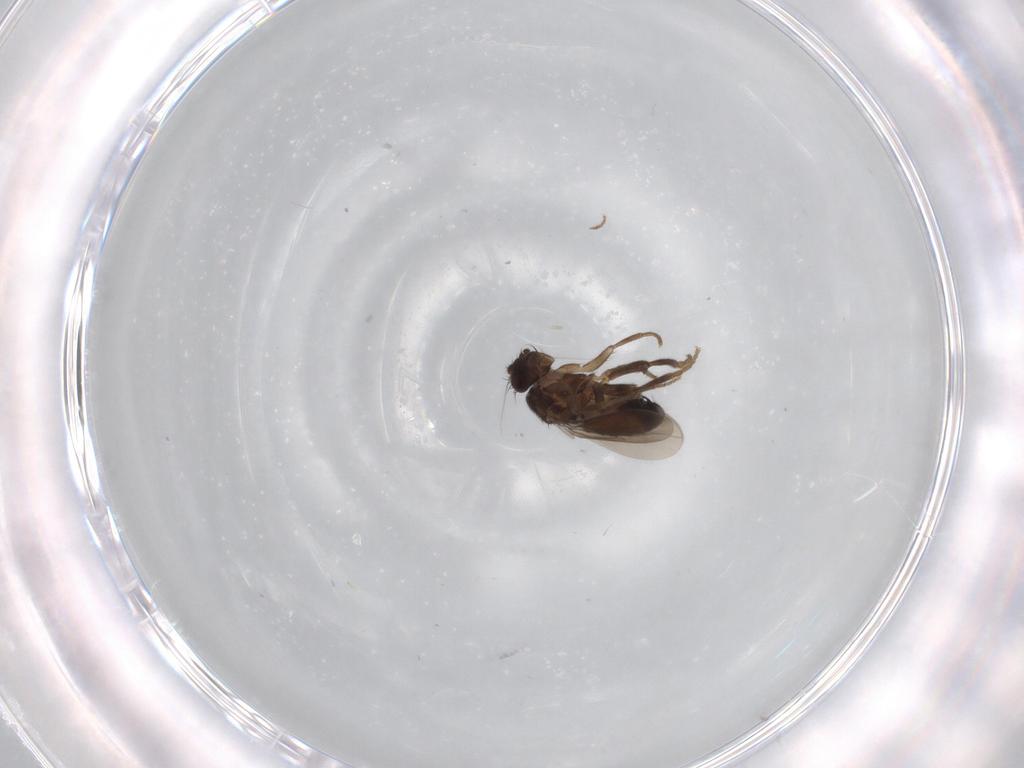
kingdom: Animalia
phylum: Arthropoda
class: Insecta
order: Diptera
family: Sphaeroceridae
